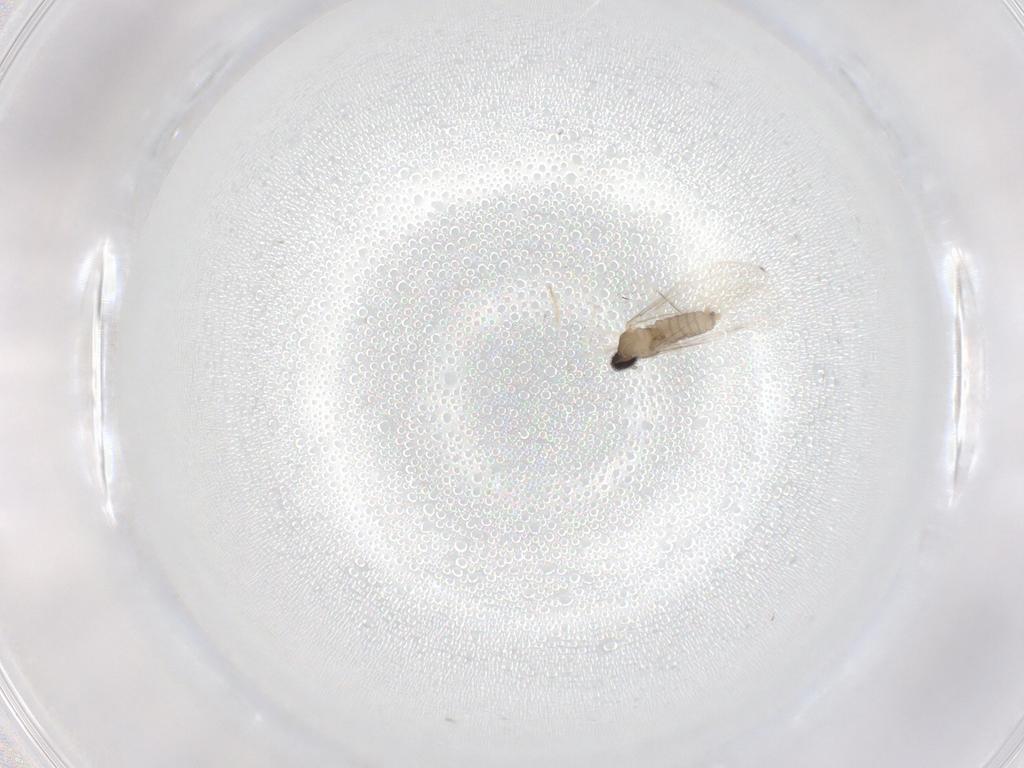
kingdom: Animalia
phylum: Arthropoda
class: Insecta
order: Diptera
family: Cecidomyiidae
